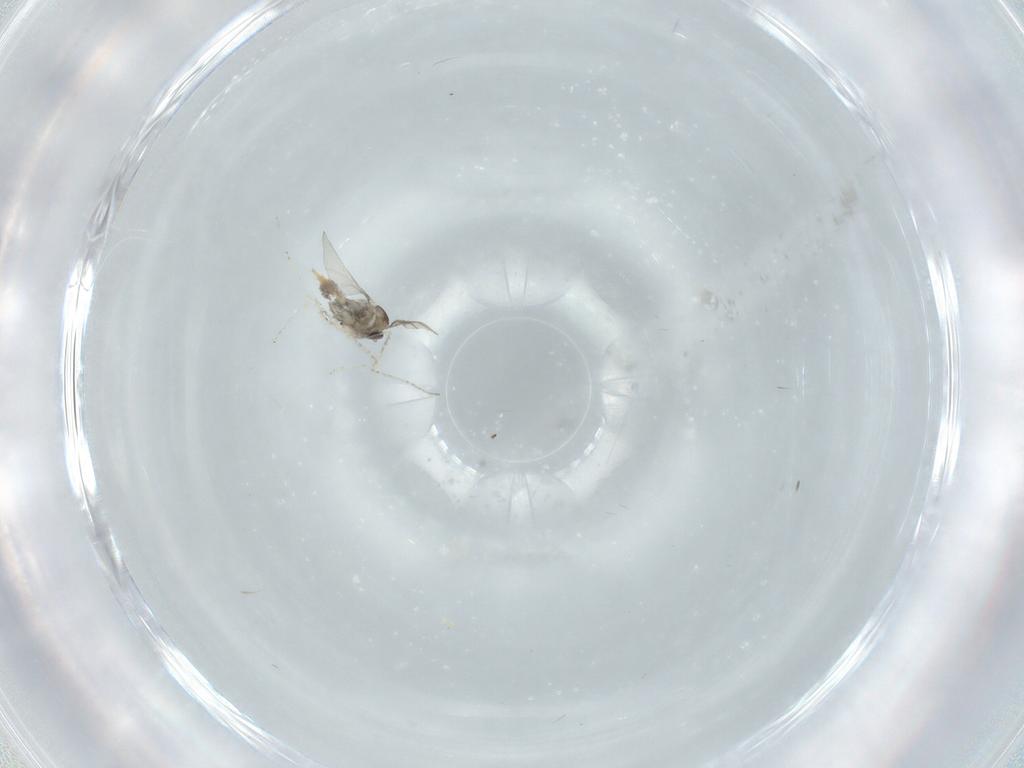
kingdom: Animalia
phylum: Arthropoda
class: Insecta
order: Diptera
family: Cecidomyiidae
